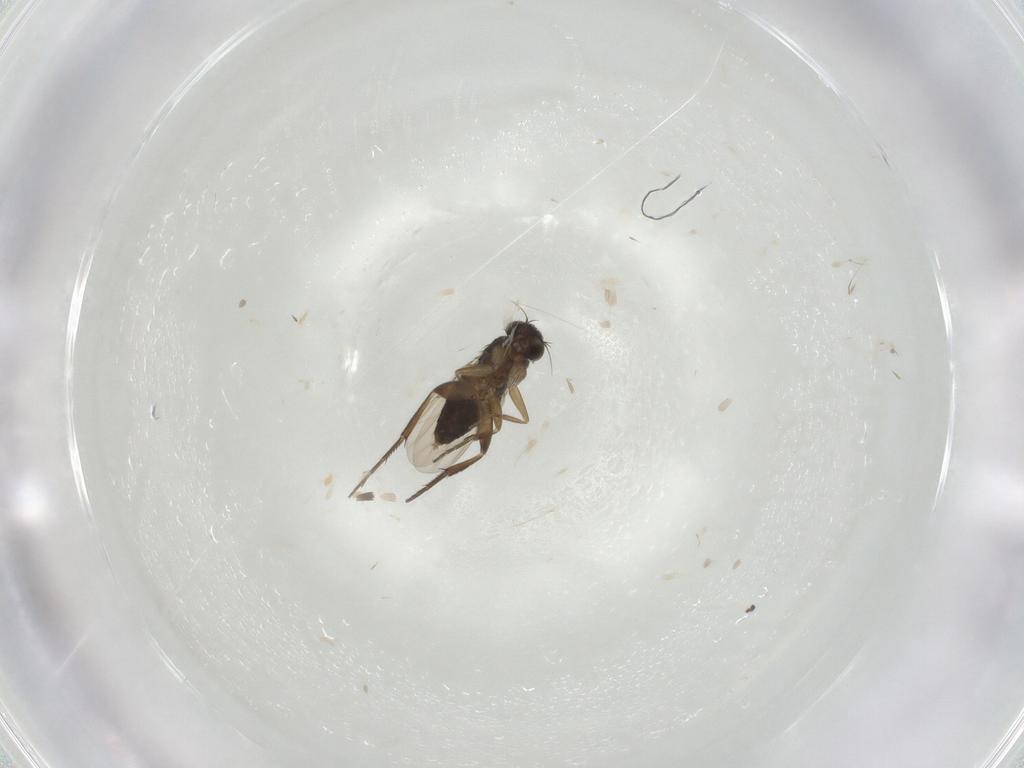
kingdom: Animalia
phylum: Arthropoda
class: Insecta
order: Diptera
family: Phoridae
